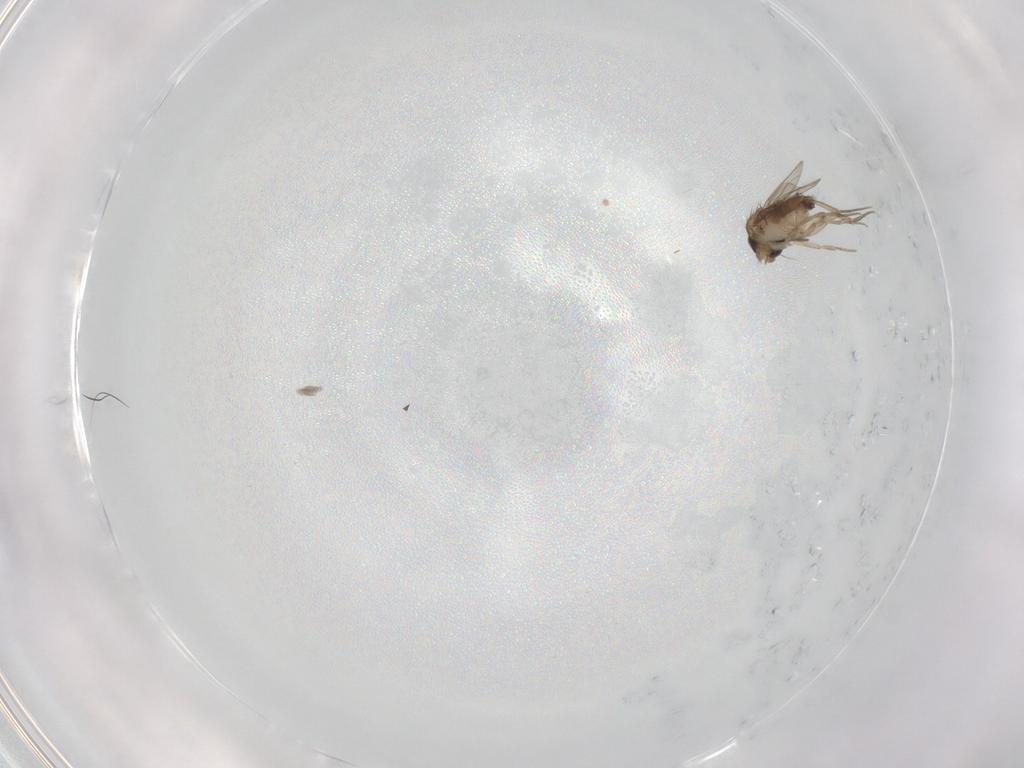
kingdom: Animalia
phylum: Arthropoda
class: Insecta
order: Diptera
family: Phoridae
